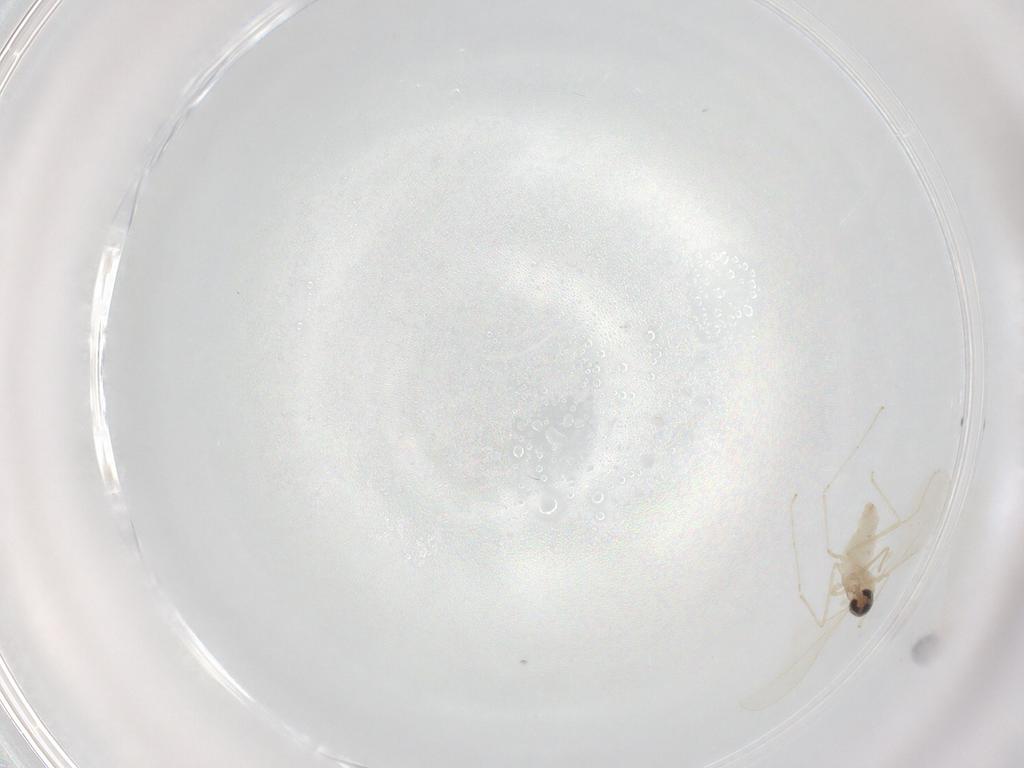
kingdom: Animalia
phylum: Arthropoda
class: Insecta
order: Diptera
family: Cecidomyiidae
